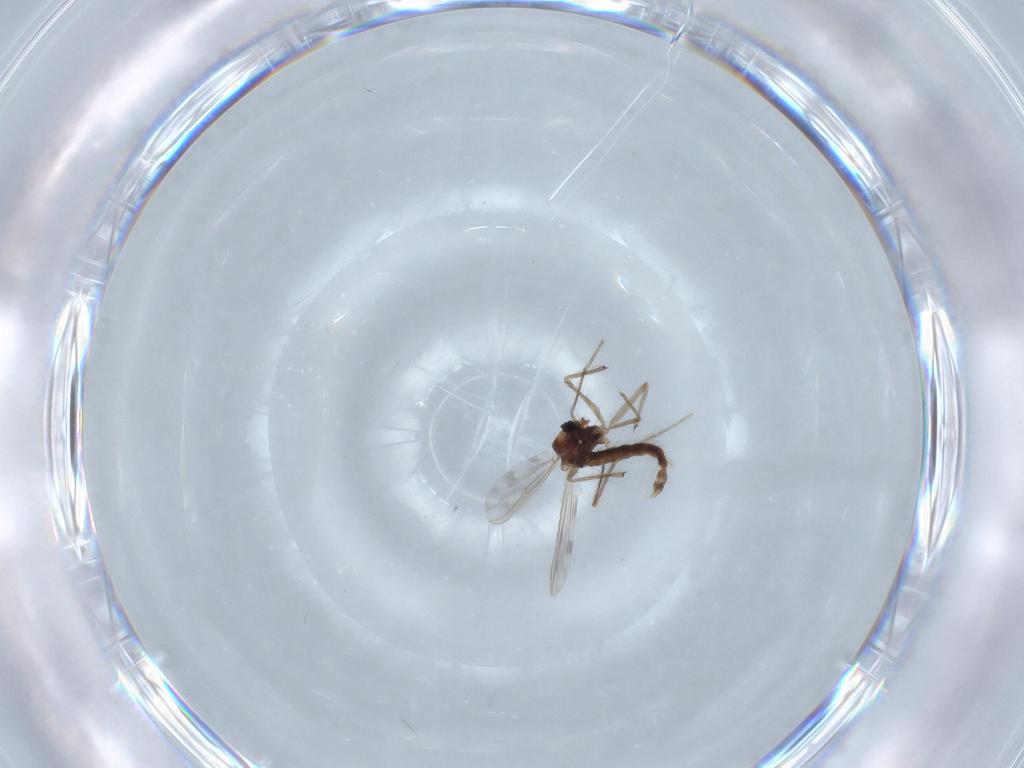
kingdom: Animalia
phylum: Arthropoda
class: Insecta
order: Diptera
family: Chironomidae
